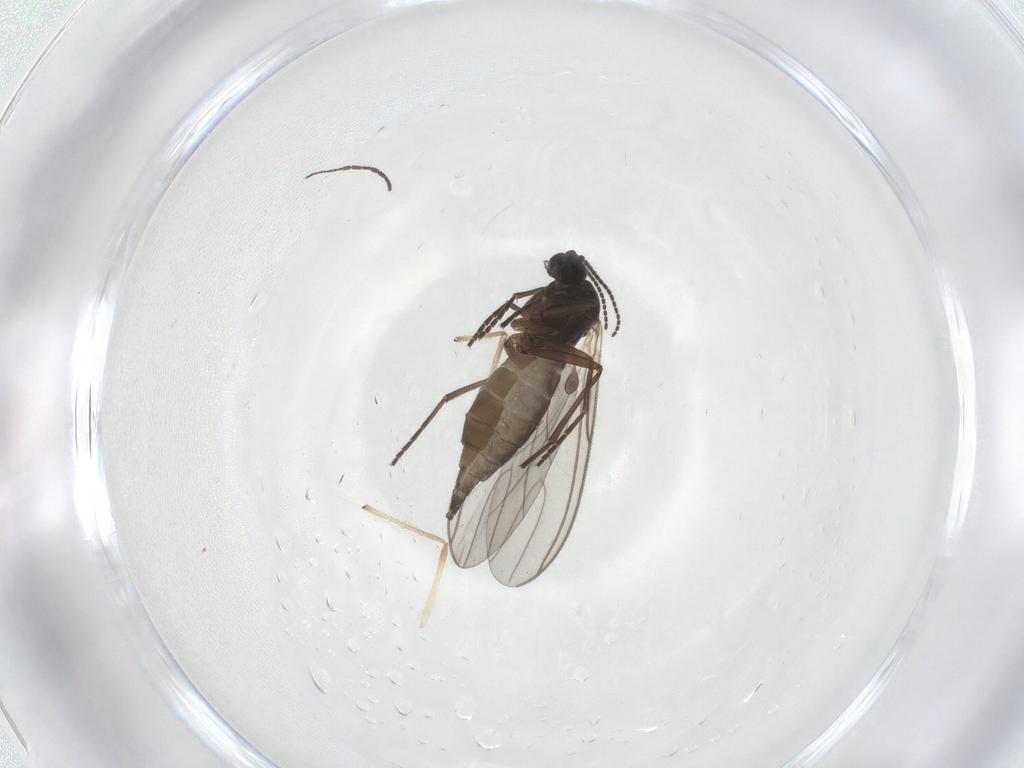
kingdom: Animalia
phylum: Arthropoda
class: Insecta
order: Diptera
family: Sciaridae
